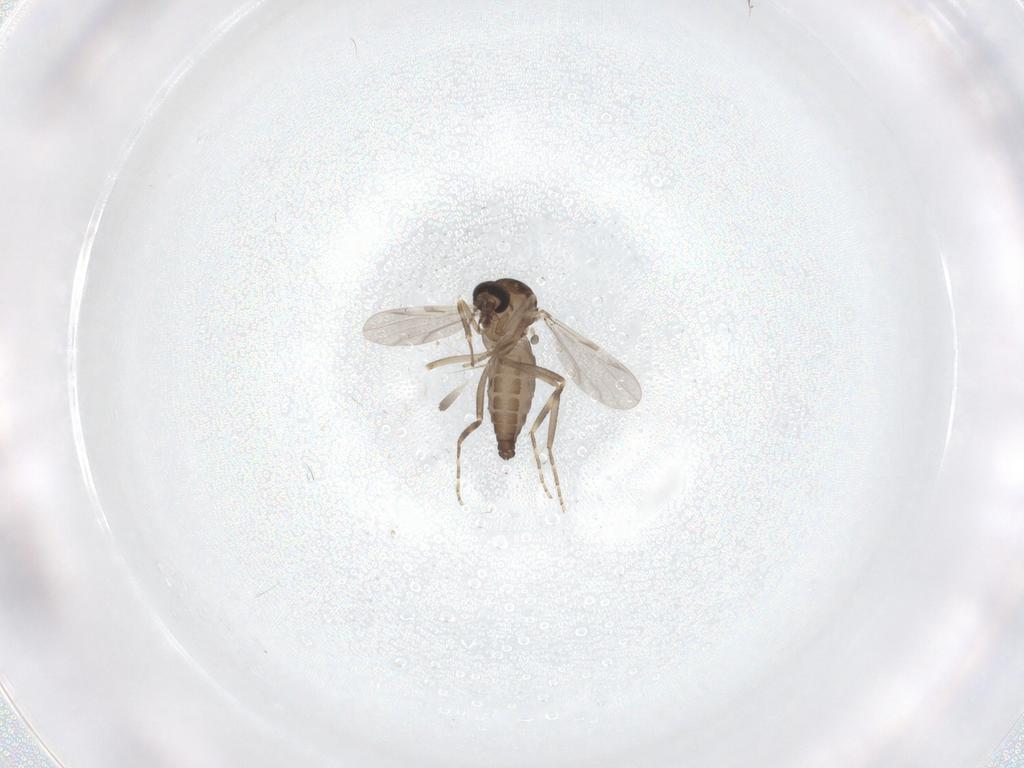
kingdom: Animalia
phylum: Arthropoda
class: Insecta
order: Diptera
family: Ceratopogonidae
